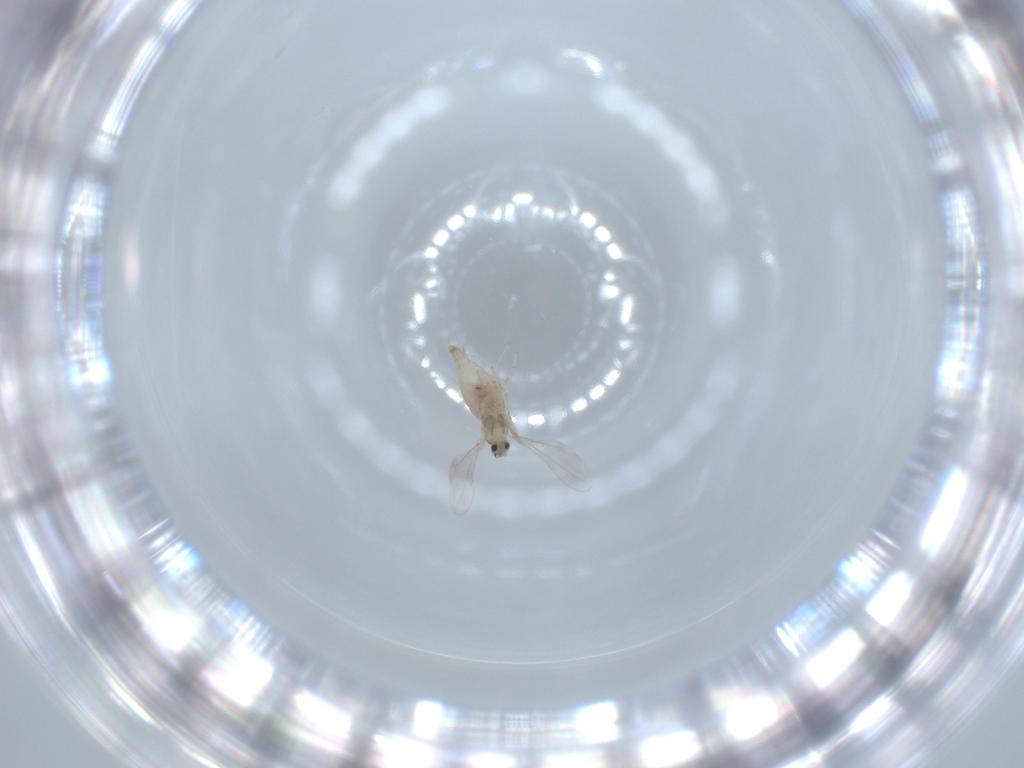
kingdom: Animalia
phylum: Arthropoda
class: Insecta
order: Diptera
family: Cecidomyiidae
